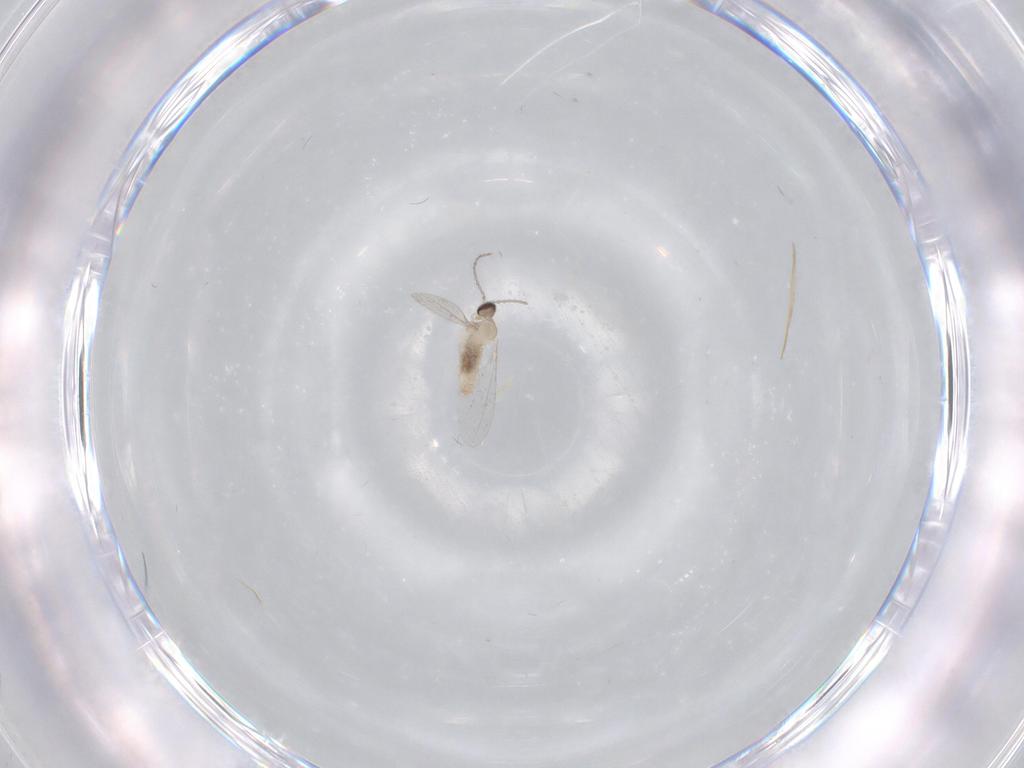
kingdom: Animalia
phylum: Arthropoda
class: Insecta
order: Diptera
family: Cecidomyiidae
